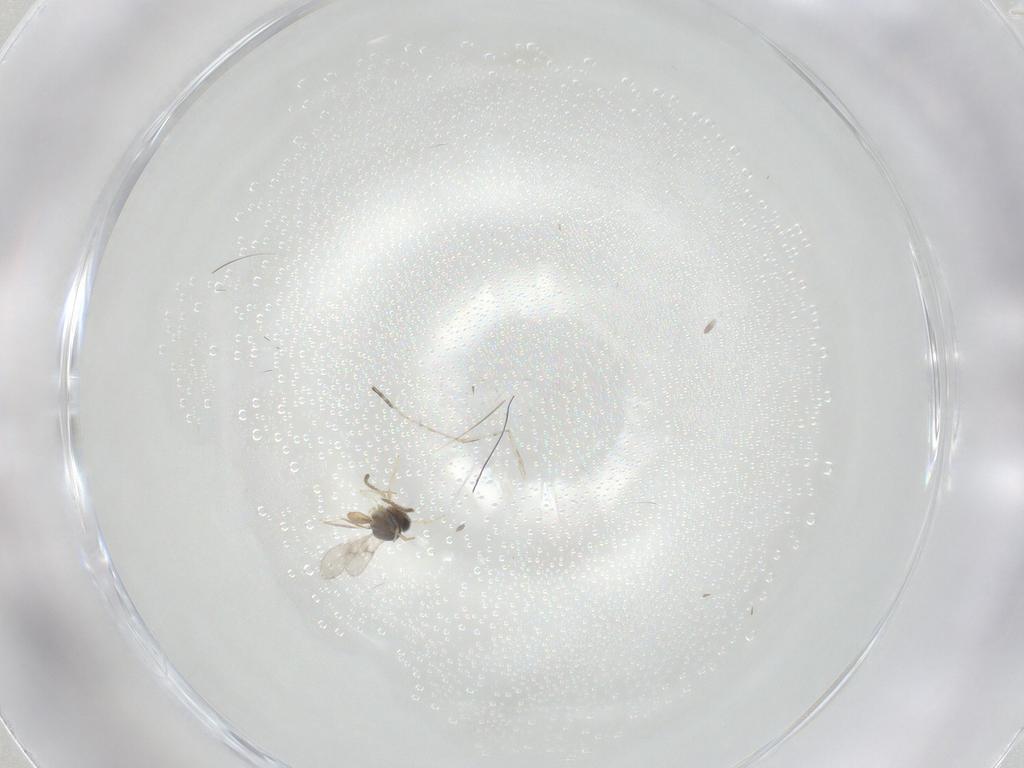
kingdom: Animalia
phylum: Arthropoda
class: Insecta
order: Hymenoptera
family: Scelionidae
